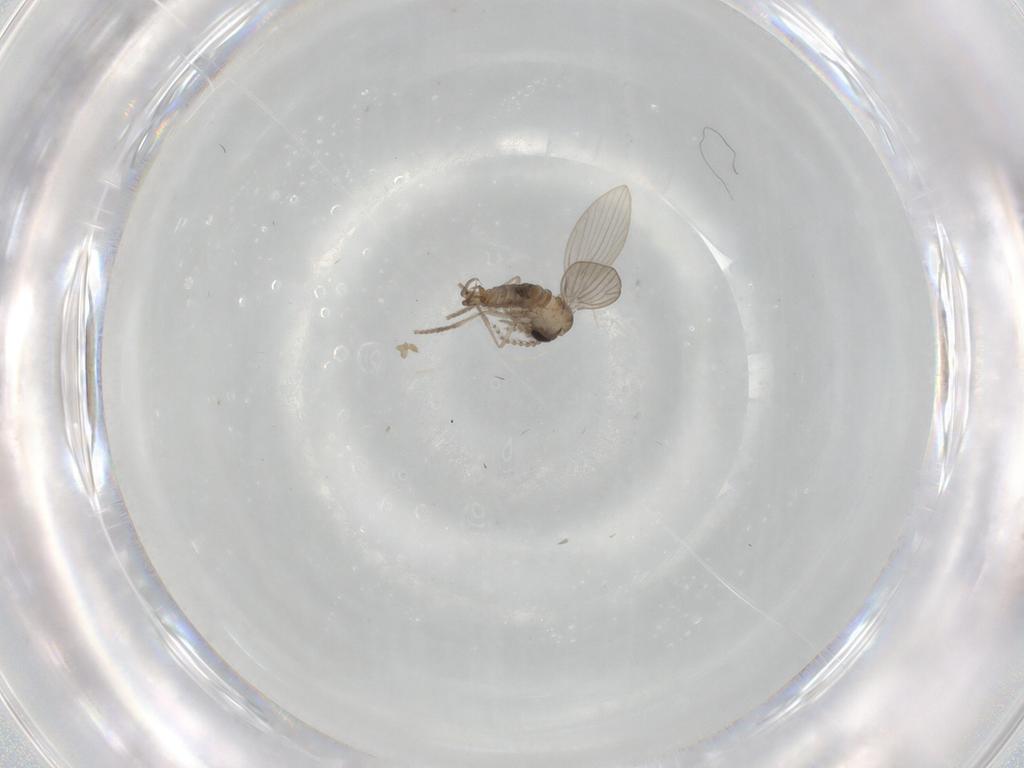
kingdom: Animalia
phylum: Arthropoda
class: Insecta
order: Diptera
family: Psychodidae
